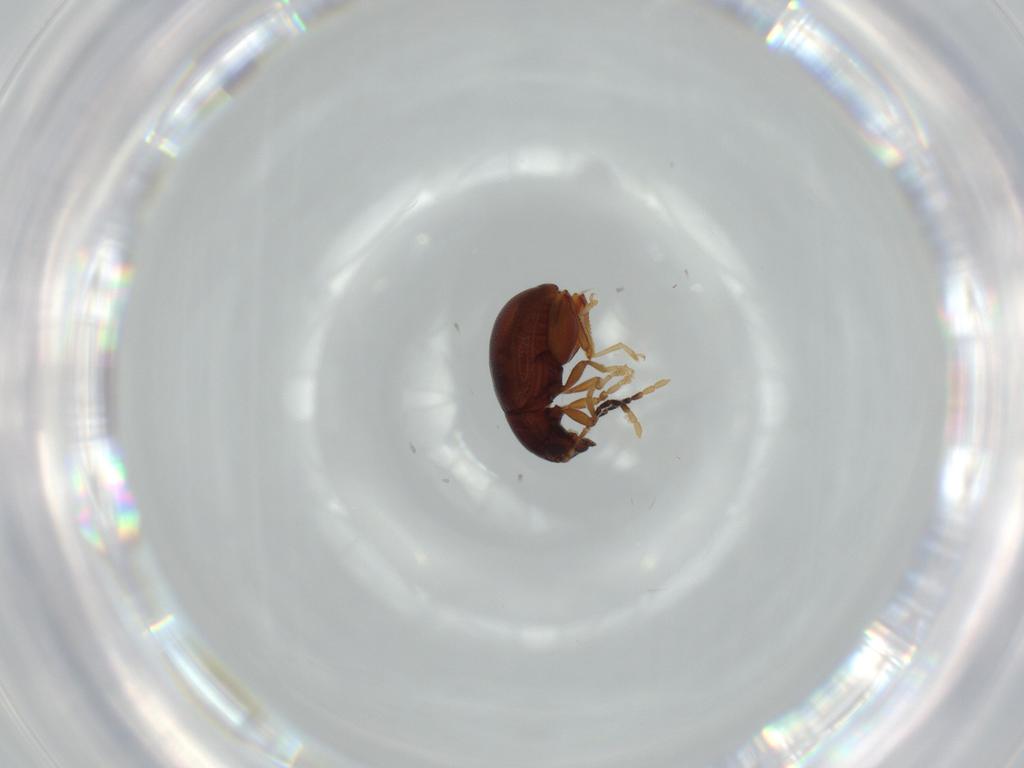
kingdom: Animalia
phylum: Arthropoda
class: Insecta
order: Coleoptera
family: Chrysomelidae
